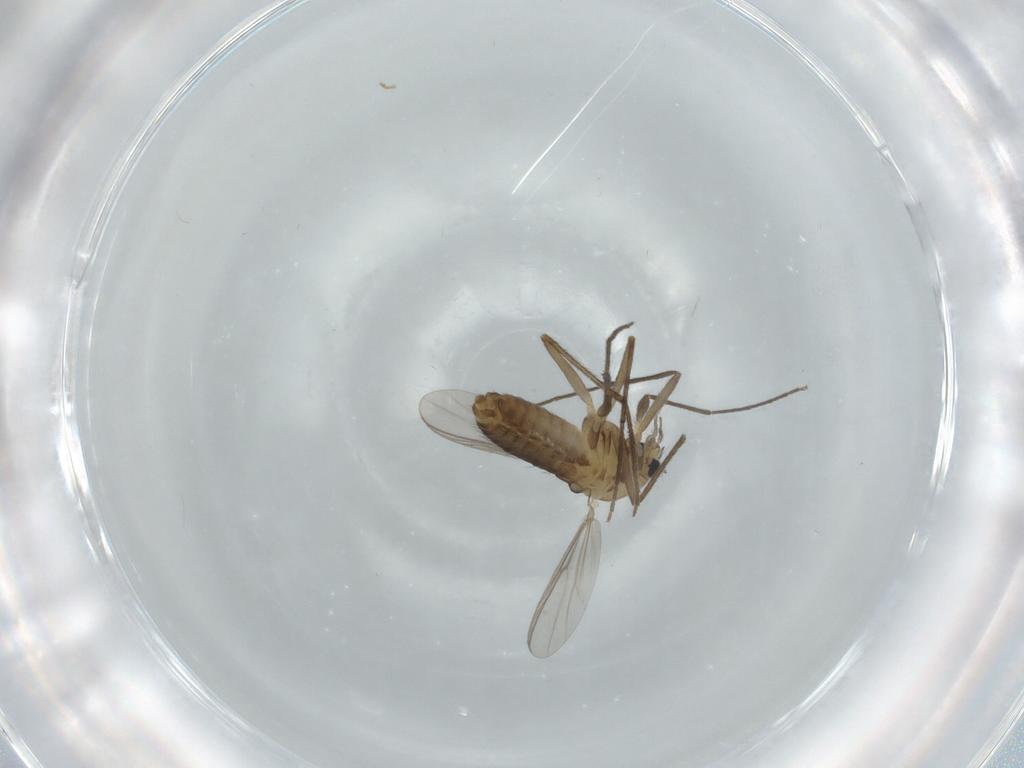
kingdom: Animalia
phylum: Arthropoda
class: Insecta
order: Diptera
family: Chironomidae
